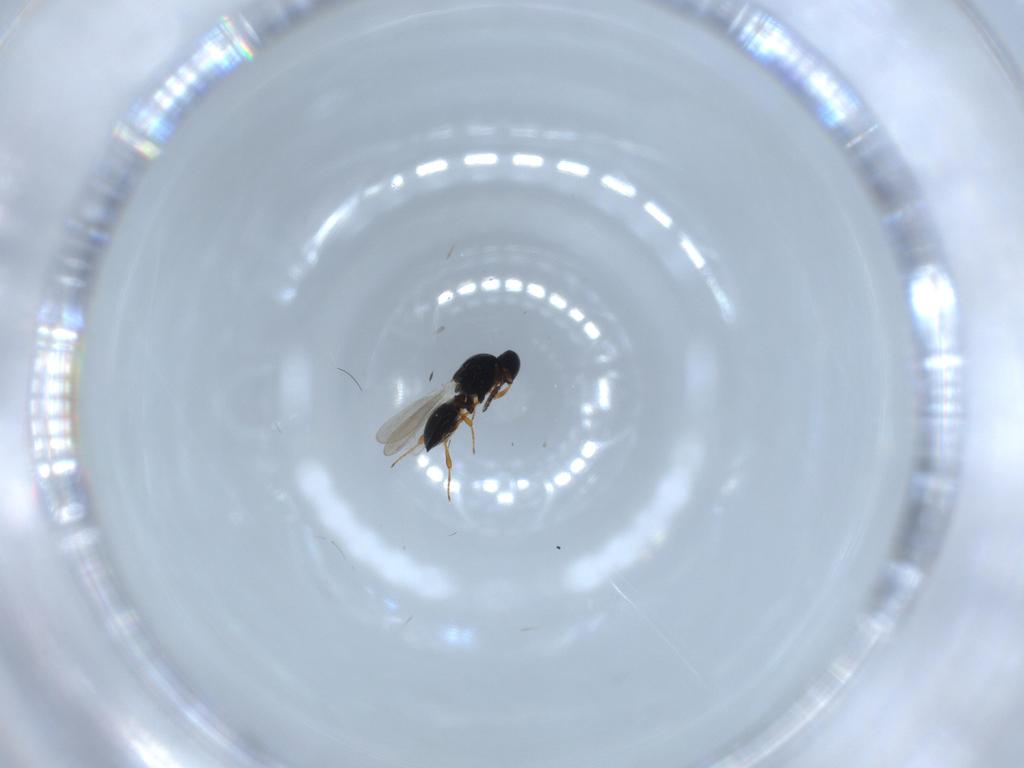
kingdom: Animalia
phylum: Arthropoda
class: Insecta
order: Hymenoptera
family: Platygastridae
